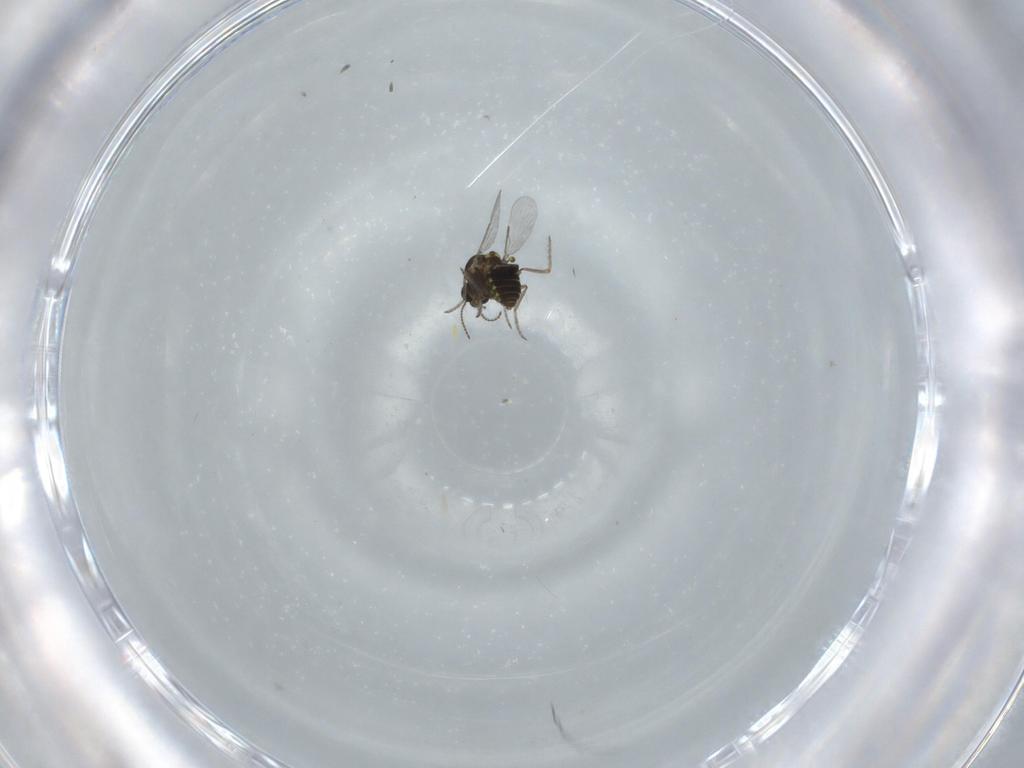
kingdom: Animalia
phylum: Arthropoda
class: Insecta
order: Diptera
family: Ceratopogonidae
